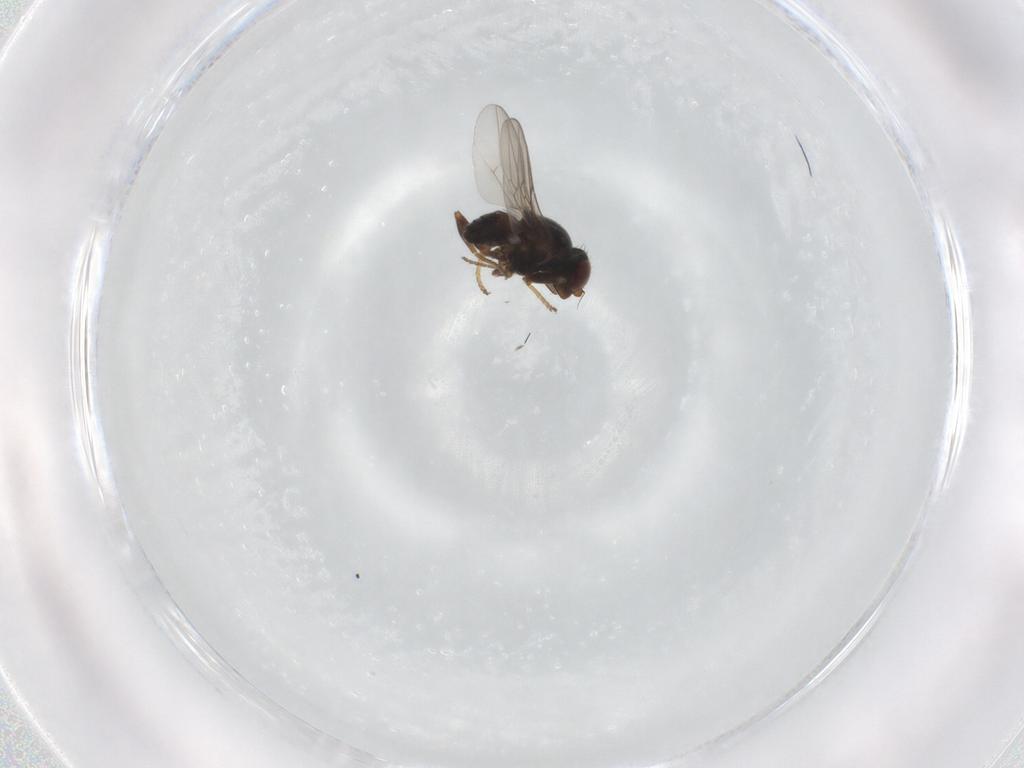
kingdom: Animalia
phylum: Arthropoda
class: Insecta
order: Diptera
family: Chloropidae
